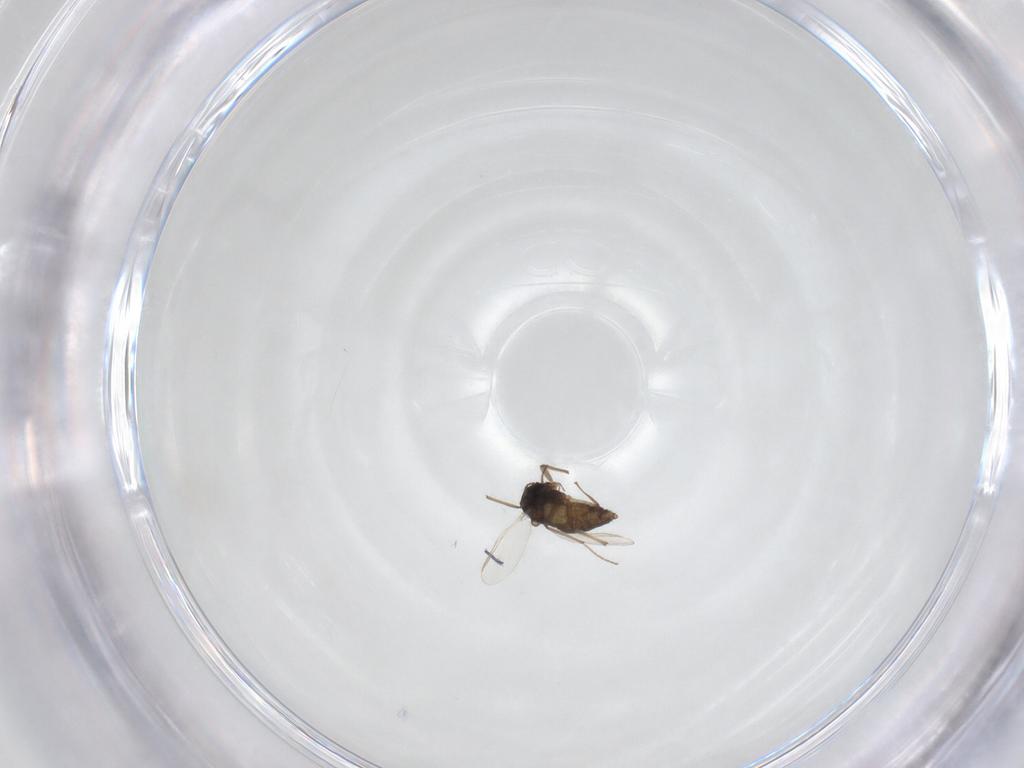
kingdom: Animalia
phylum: Arthropoda
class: Insecta
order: Diptera
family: Chironomidae
